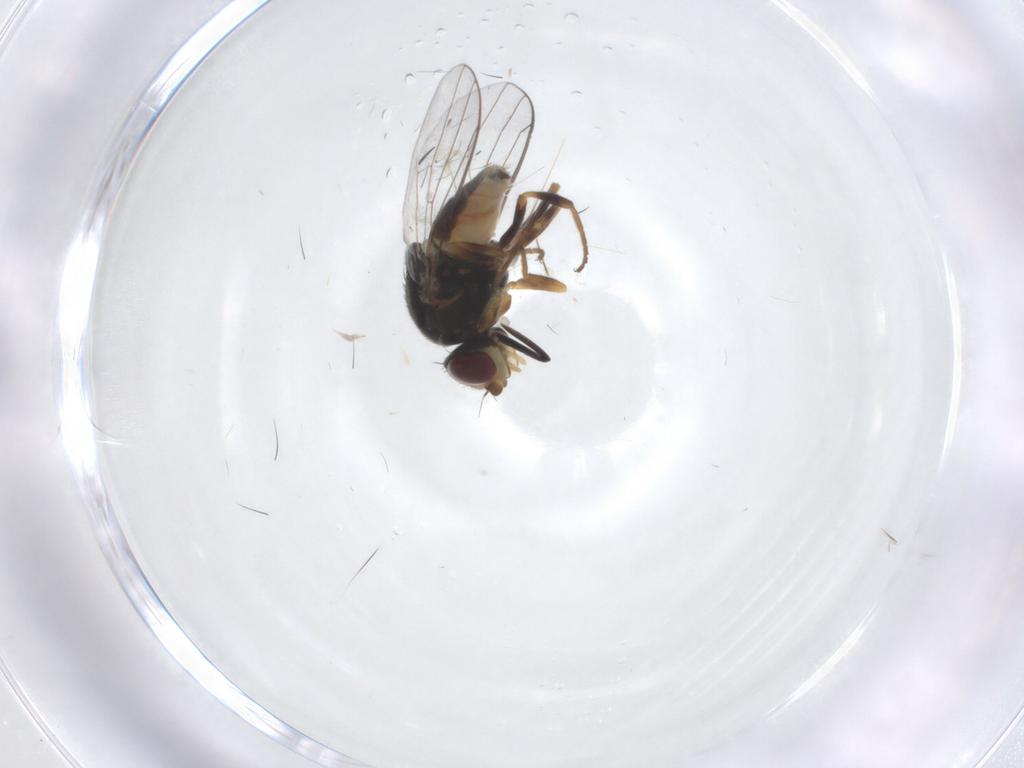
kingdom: Animalia
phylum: Arthropoda
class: Insecta
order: Diptera
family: Chloropidae
